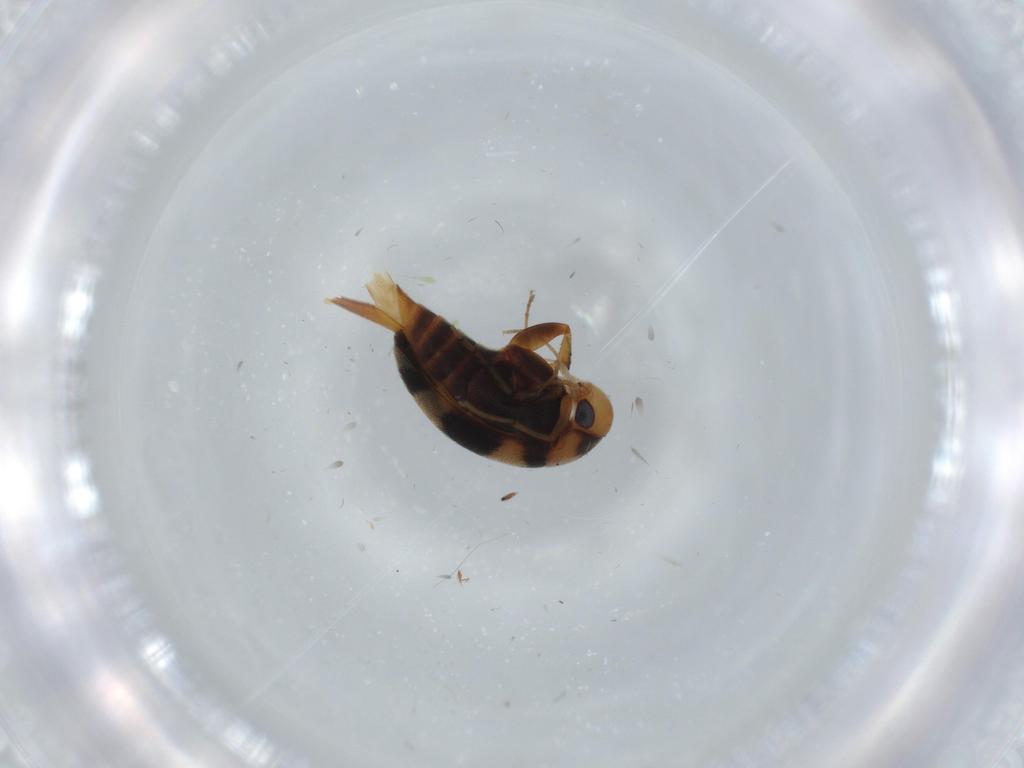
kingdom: Animalia
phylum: Arthropoda
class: Insecta
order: Coleoptera
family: Mordellidae
